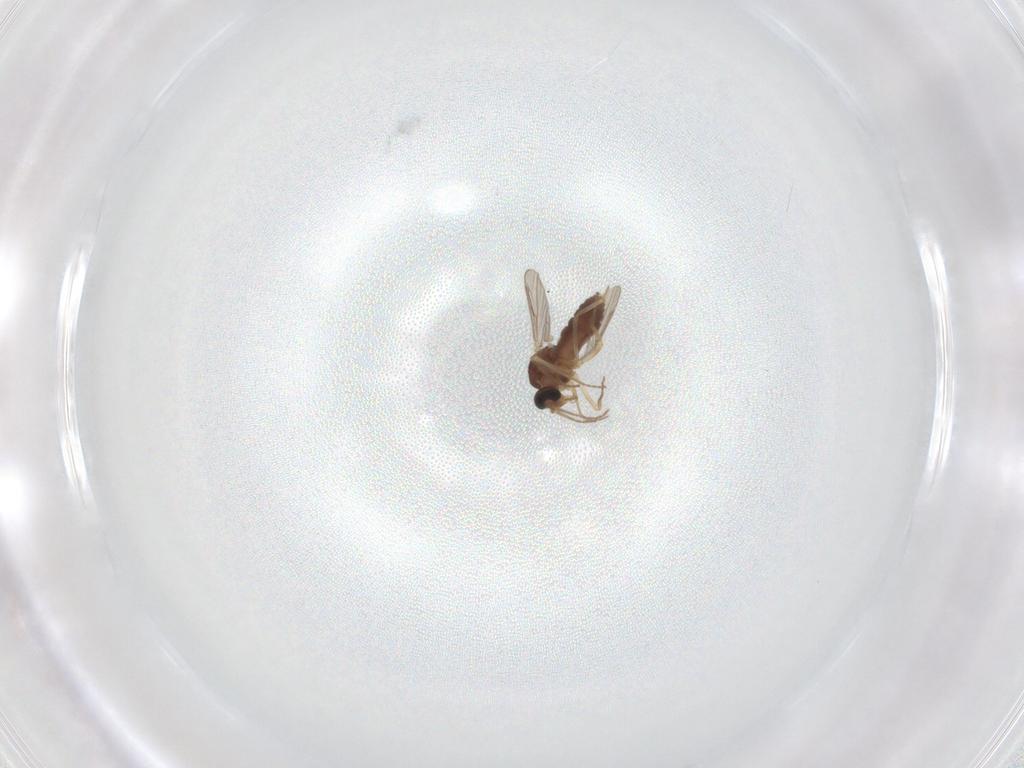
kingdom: Animalia
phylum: Arthropoda
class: Insecta
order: Diptera
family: Ceratopogonidae
